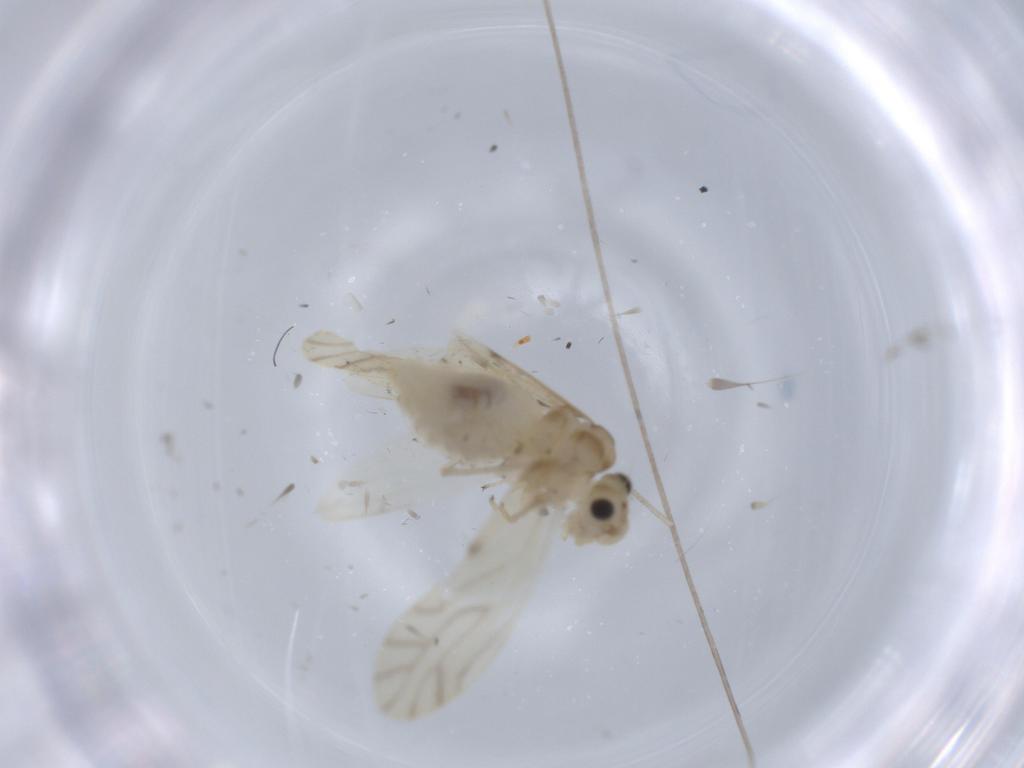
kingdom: Animalia
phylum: Arthropoda
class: Insecta
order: Psocodea
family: Caeciliusidae
